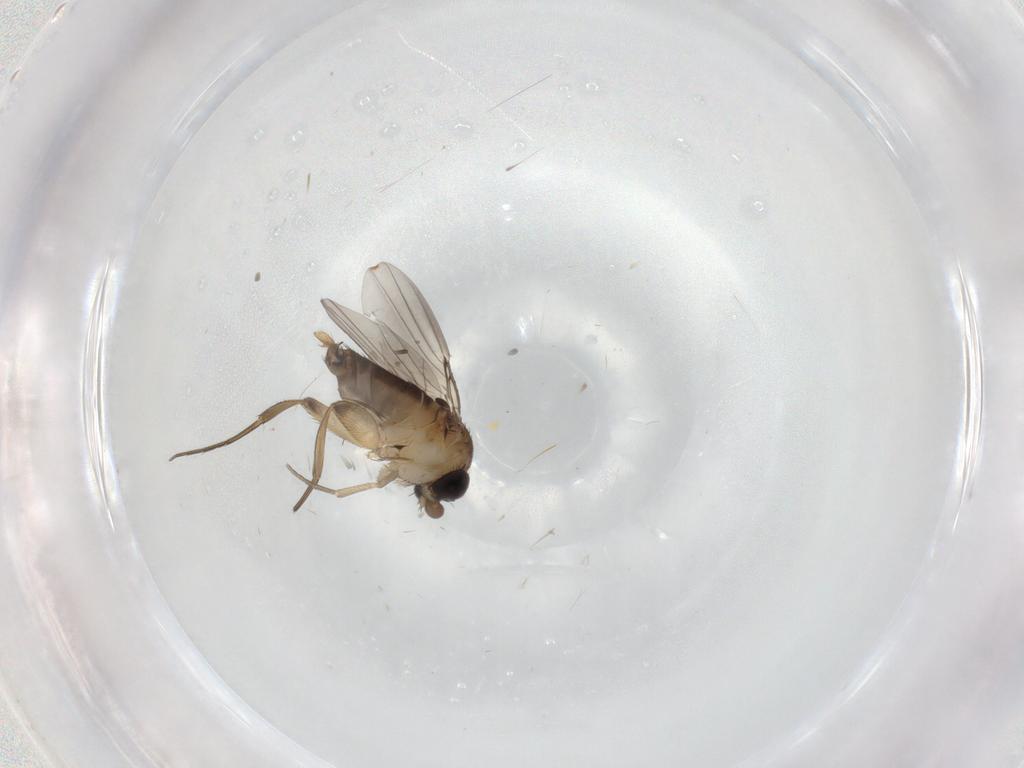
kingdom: Animalia
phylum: Arthropoda
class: Insecta
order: Diptera
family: Phoridae
